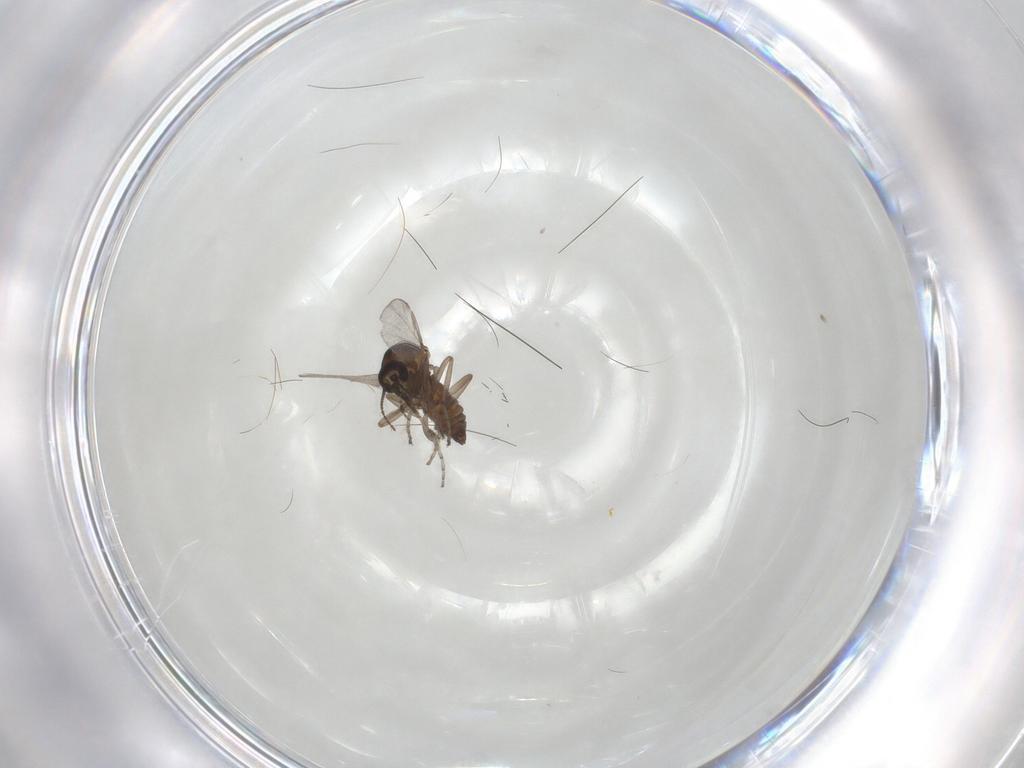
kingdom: Animalia
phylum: Arthropoda
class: Insecta
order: Diptera
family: Ceratopogonidae
